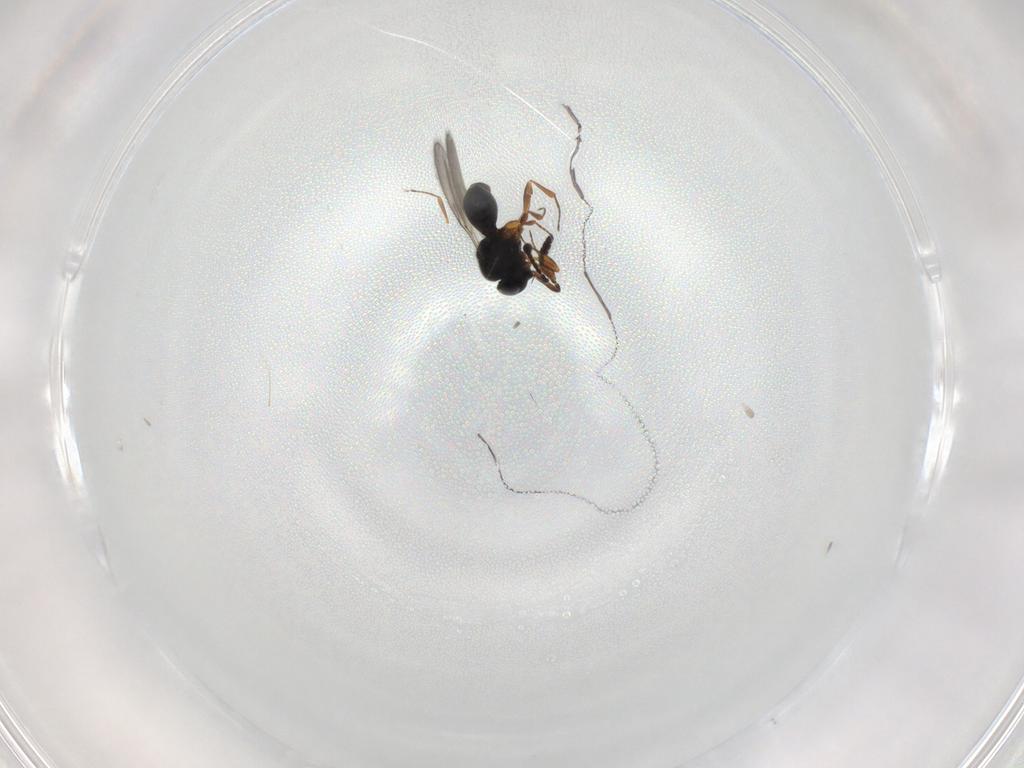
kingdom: Animalia
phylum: Arthropoda
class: Insecta
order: Hymenoptera
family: Scelionidae
